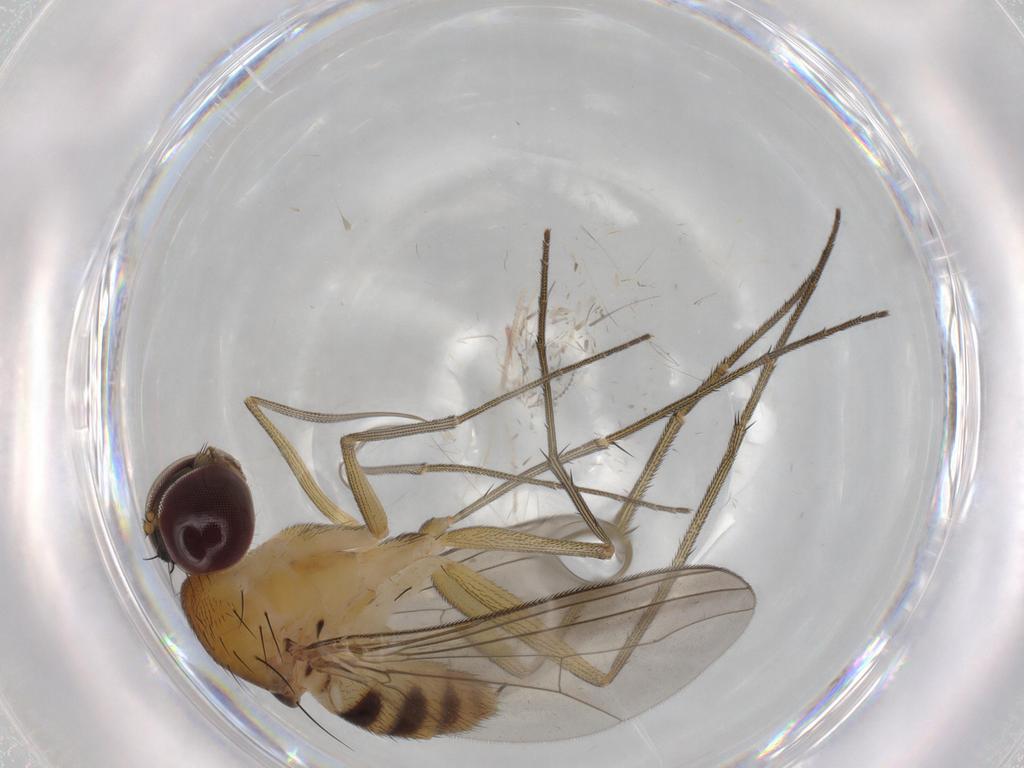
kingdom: Animalia
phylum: Arthropoda
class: Insecta
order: Diptera
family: Dolichopodidae
